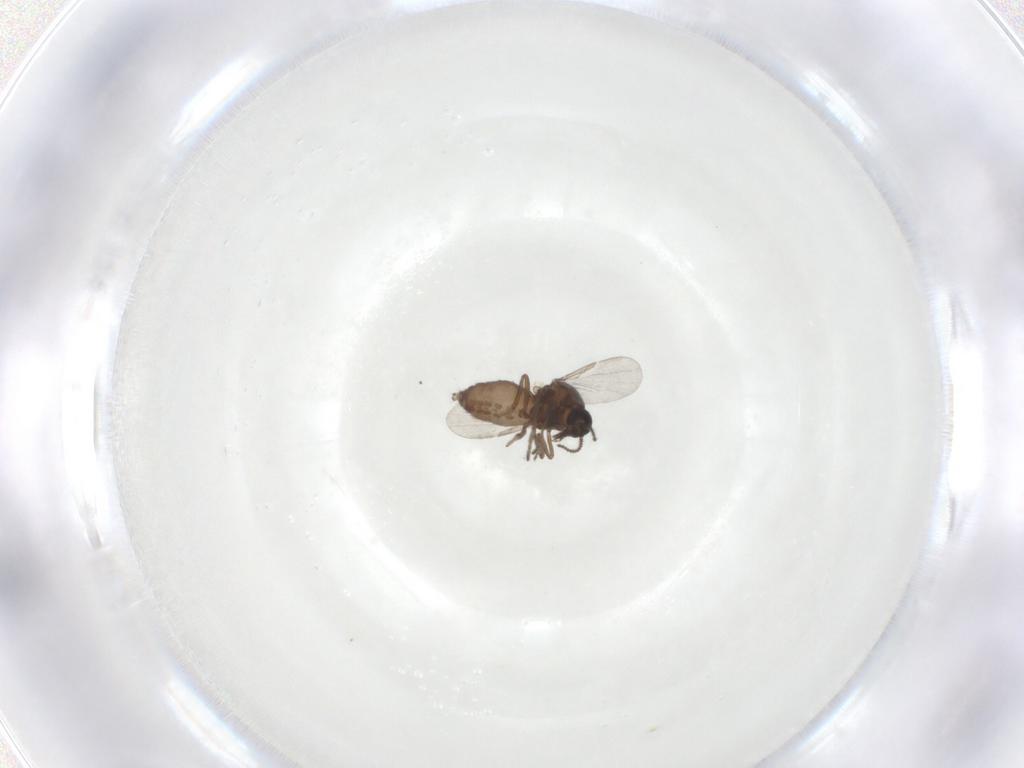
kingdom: Animalia
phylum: Arthropoda
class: Insecta
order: Diptera
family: Ceratopogonidae
